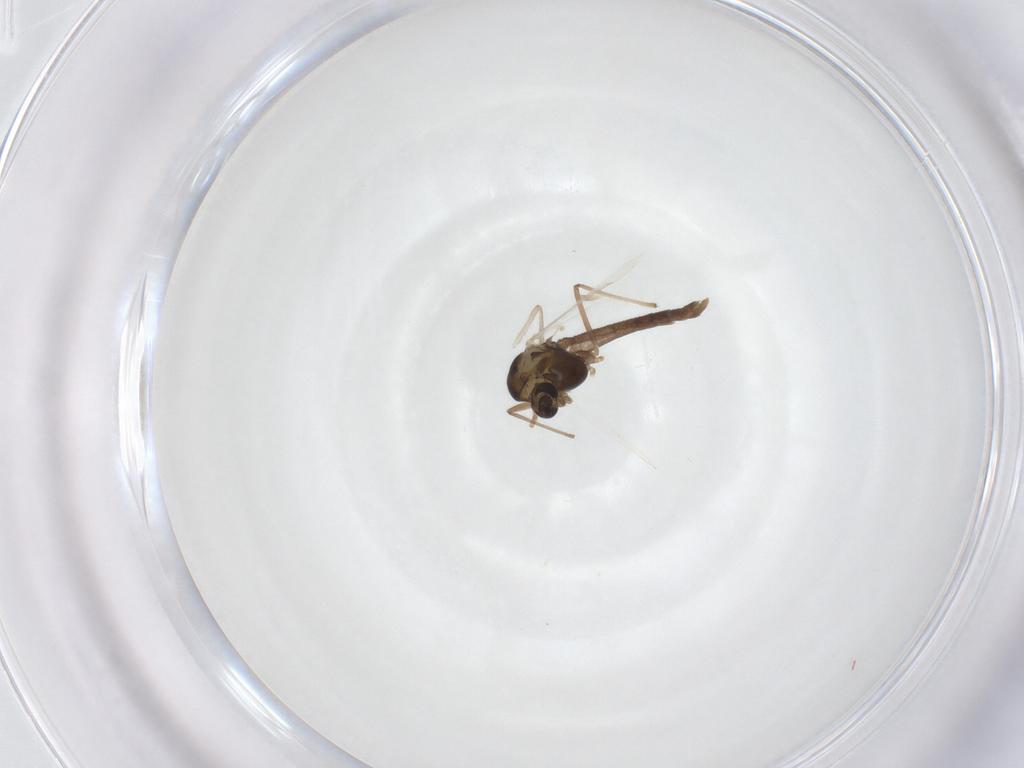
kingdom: Animalia
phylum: Arthropoda
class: Insecta
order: Diptera
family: Chironomidae
